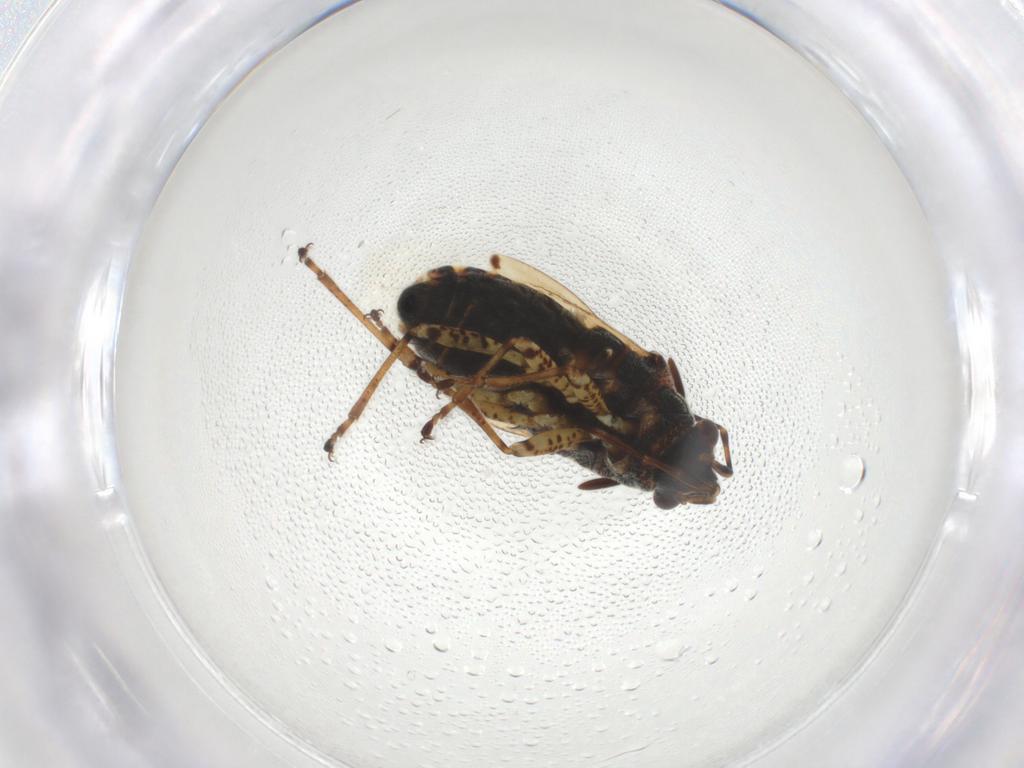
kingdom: Animalia
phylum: Arthropoda
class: Insecta
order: Hemiptera
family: Lygaeidae
